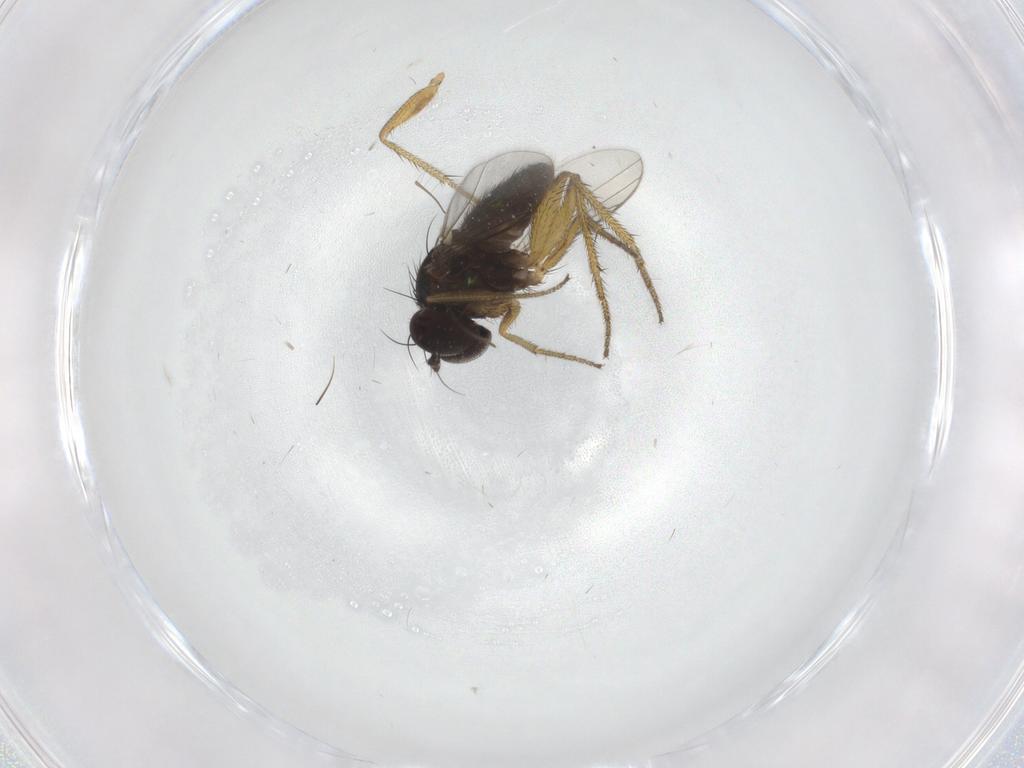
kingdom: Animalia
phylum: Arthropoda
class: Insecta
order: Diptera
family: Dolichopodidae
